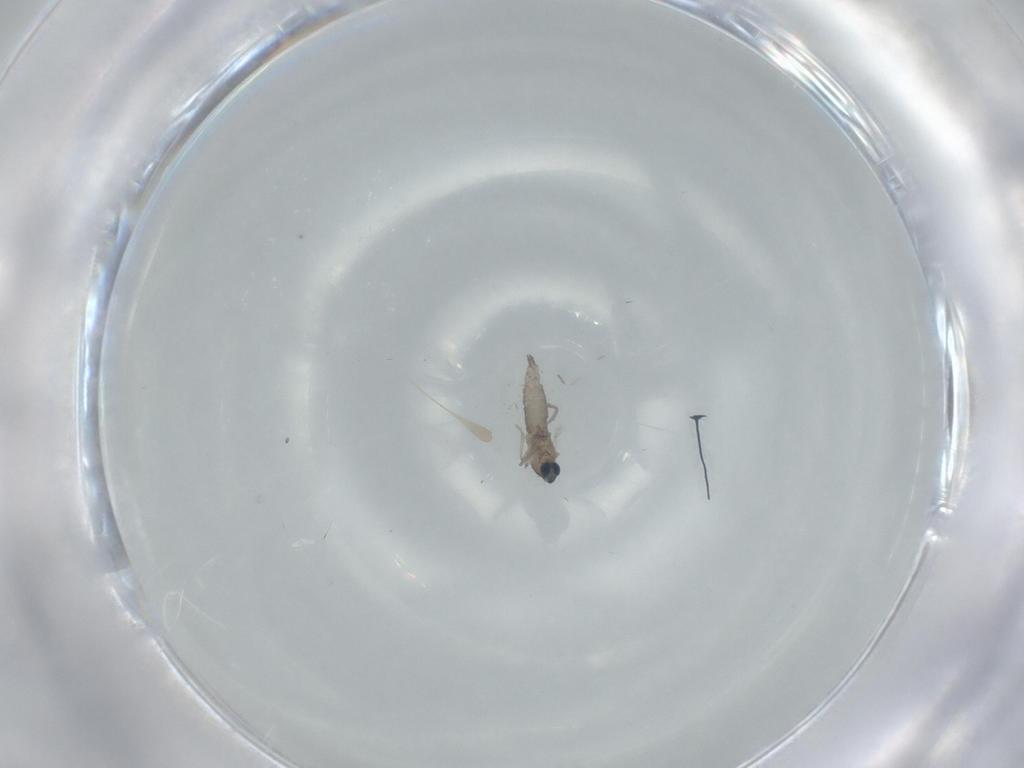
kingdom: Animalia
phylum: Arthropoda
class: Insecta
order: Diptera
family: Cecidomyiidae
